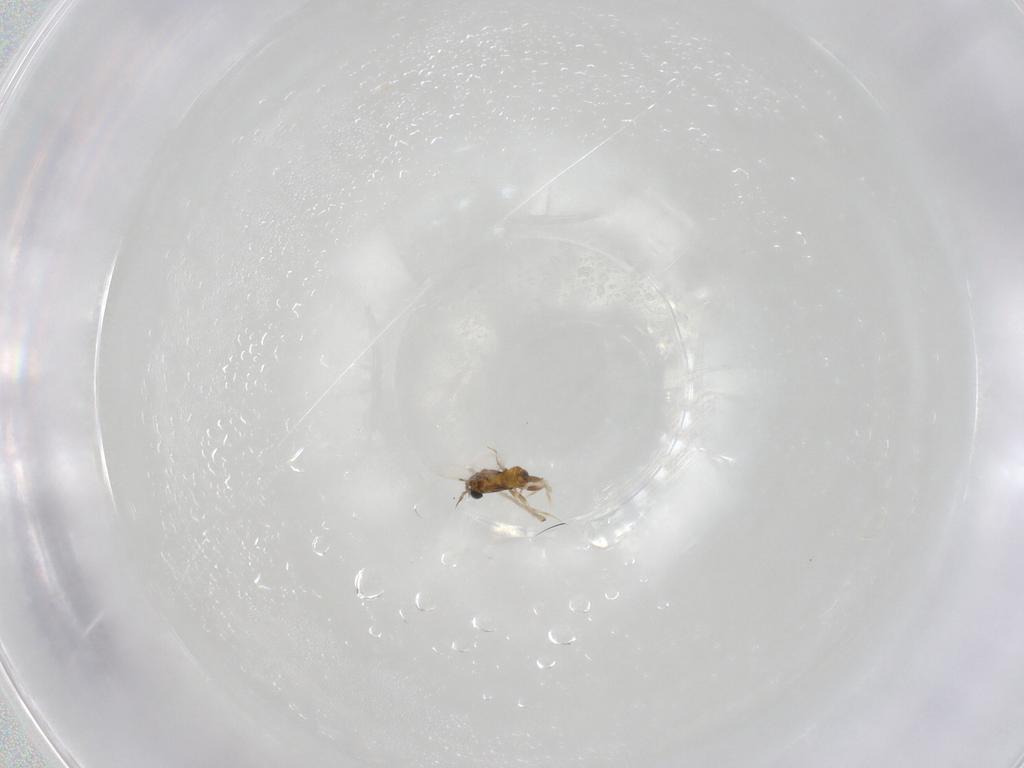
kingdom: Animalia
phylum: Arthropoda
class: Insecta
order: Hymenoptera
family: Trichogrammatidae
